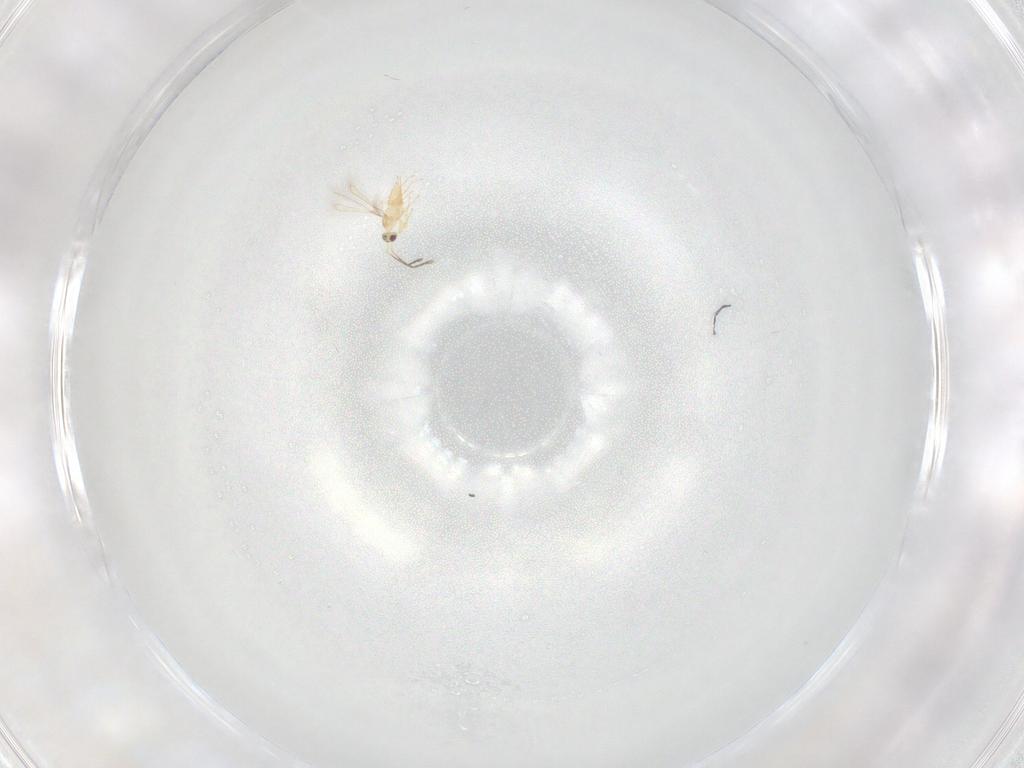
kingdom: Animalia
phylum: Arthropoda
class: Insecta
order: Hymenoptera
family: Mymaridae
